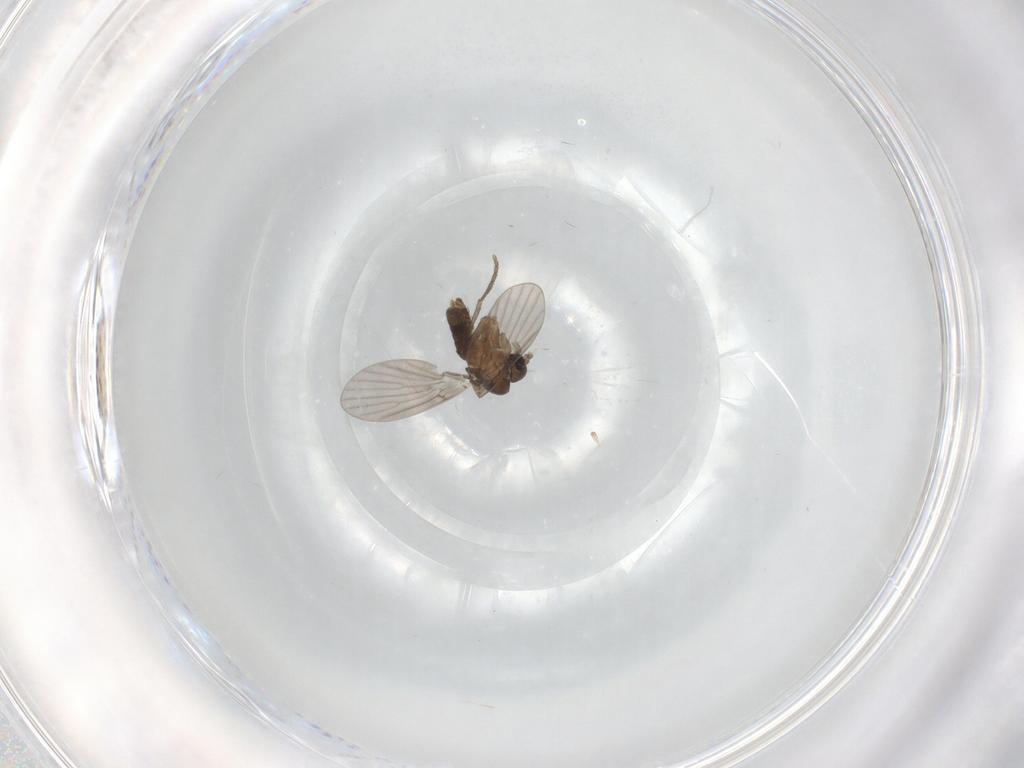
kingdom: Animalia
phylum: Arthropoda
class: Insecta
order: Diptera
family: Psychodidae
